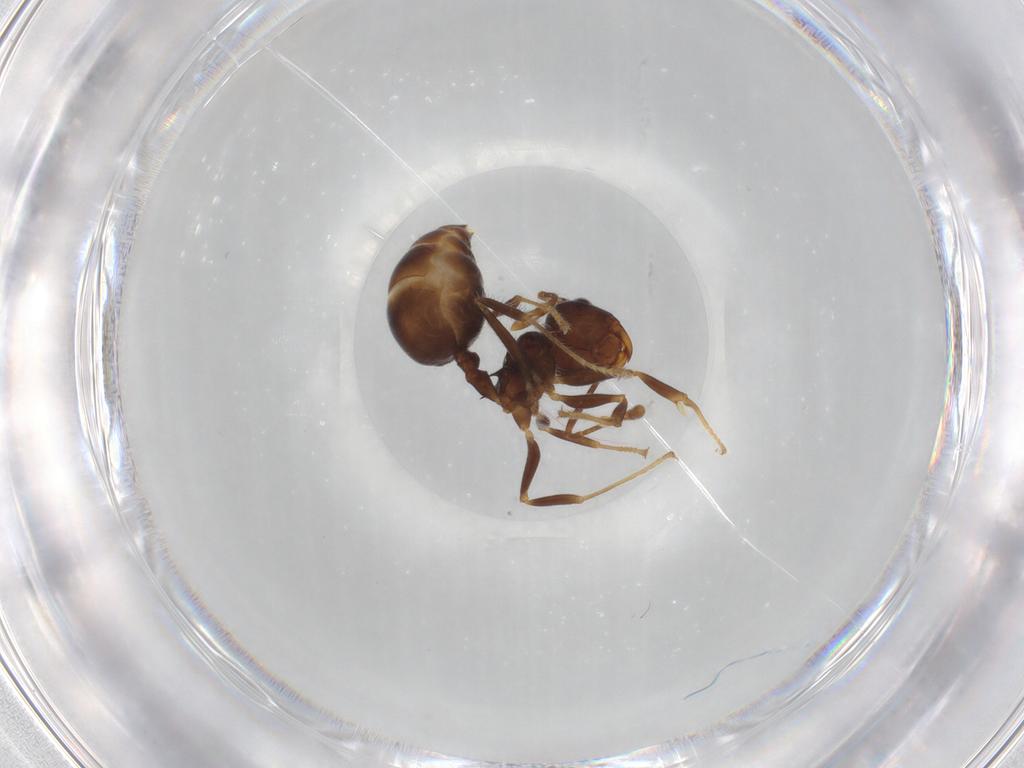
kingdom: Animalia
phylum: Arthropoda
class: Insecta
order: Hymenoptera
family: Formicidae
